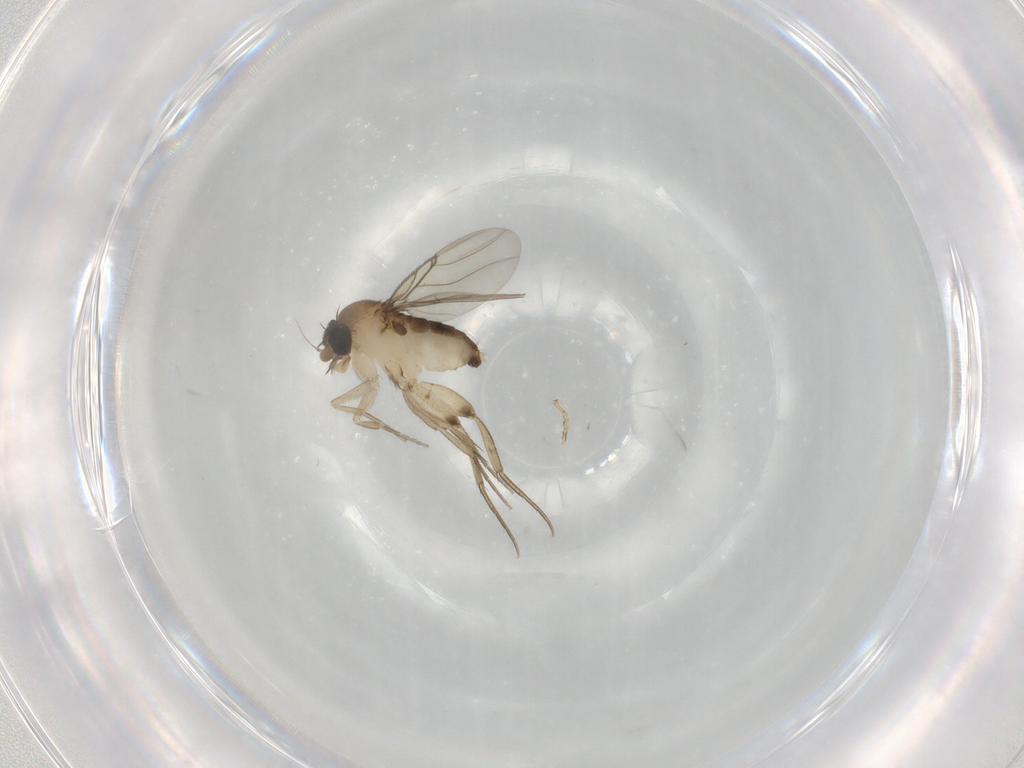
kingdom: Animalia
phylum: Arthropoda
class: Insecta
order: Diptera
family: Phoridae
